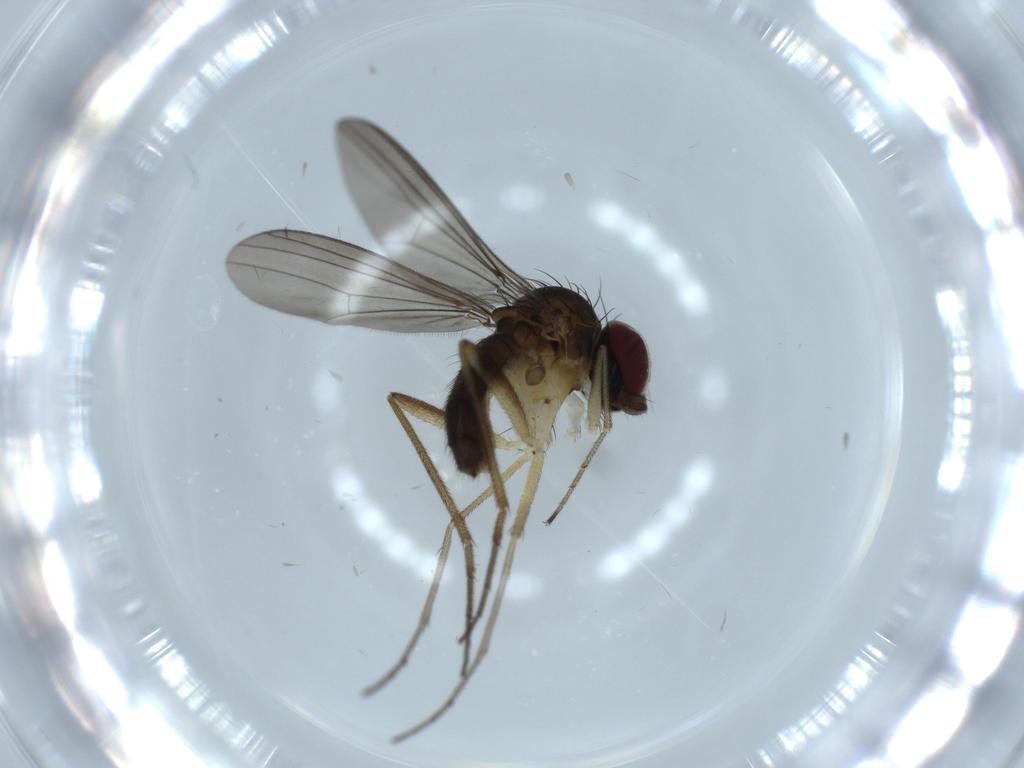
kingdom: Animalia
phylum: Arthropoda
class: Insecta
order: Diptera
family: Dolichopodidae
